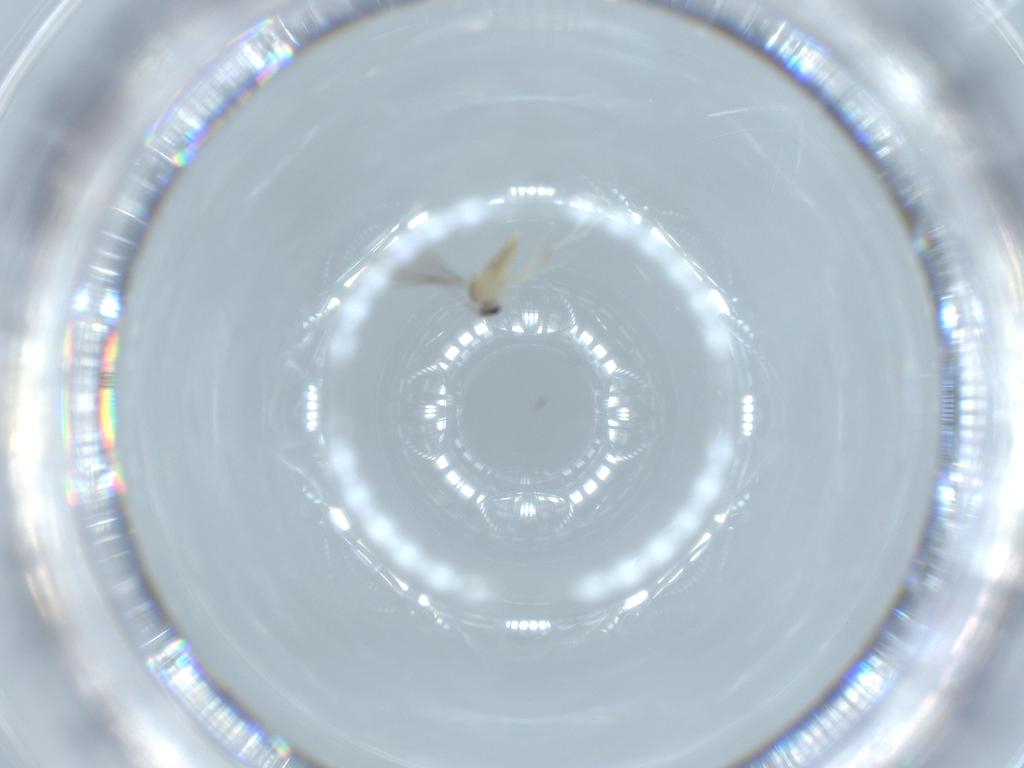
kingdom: Animalia
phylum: Arthropoda
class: Insecta
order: Diptera
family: Cecidomyiidae
